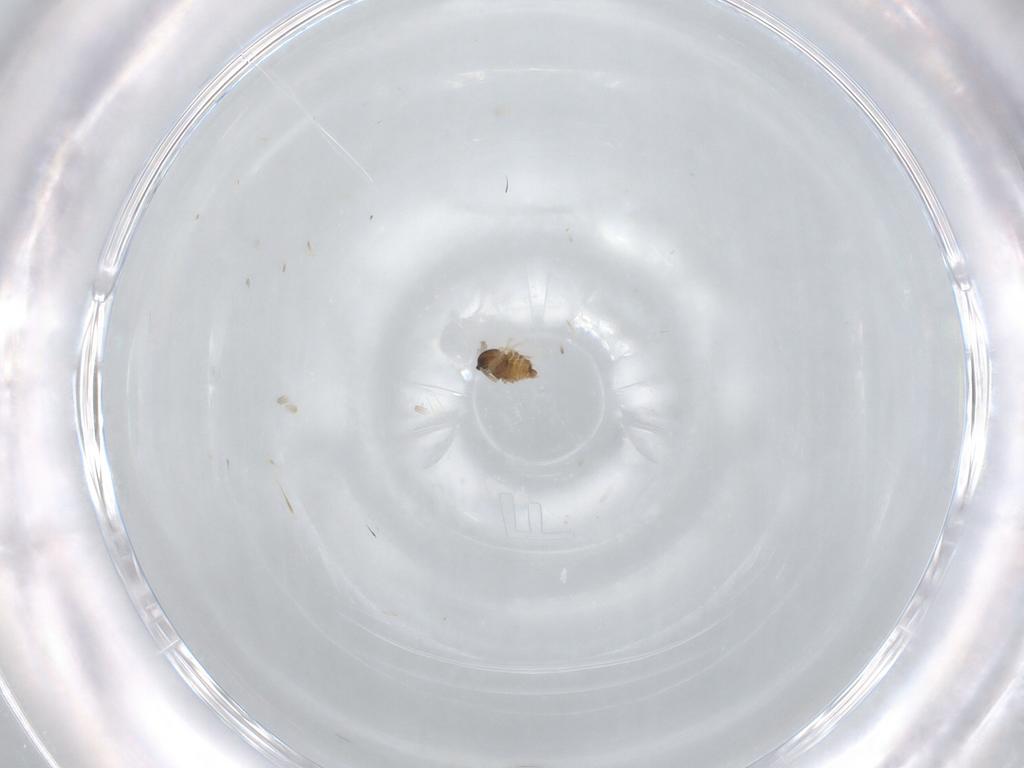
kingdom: Animalia
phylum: Arthropoda
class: Insecta
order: Diptera
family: Cecidomyiidae
